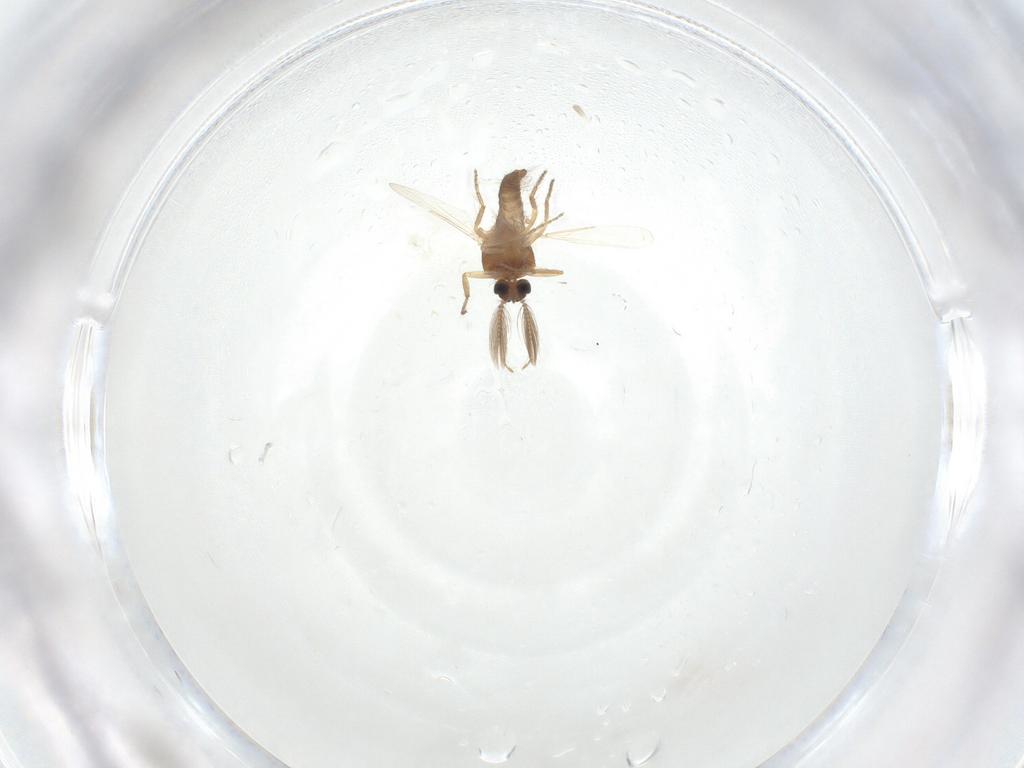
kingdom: Animalia
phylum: Arthropoda
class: Insecta
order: Diptera
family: Ceratopogonidae
